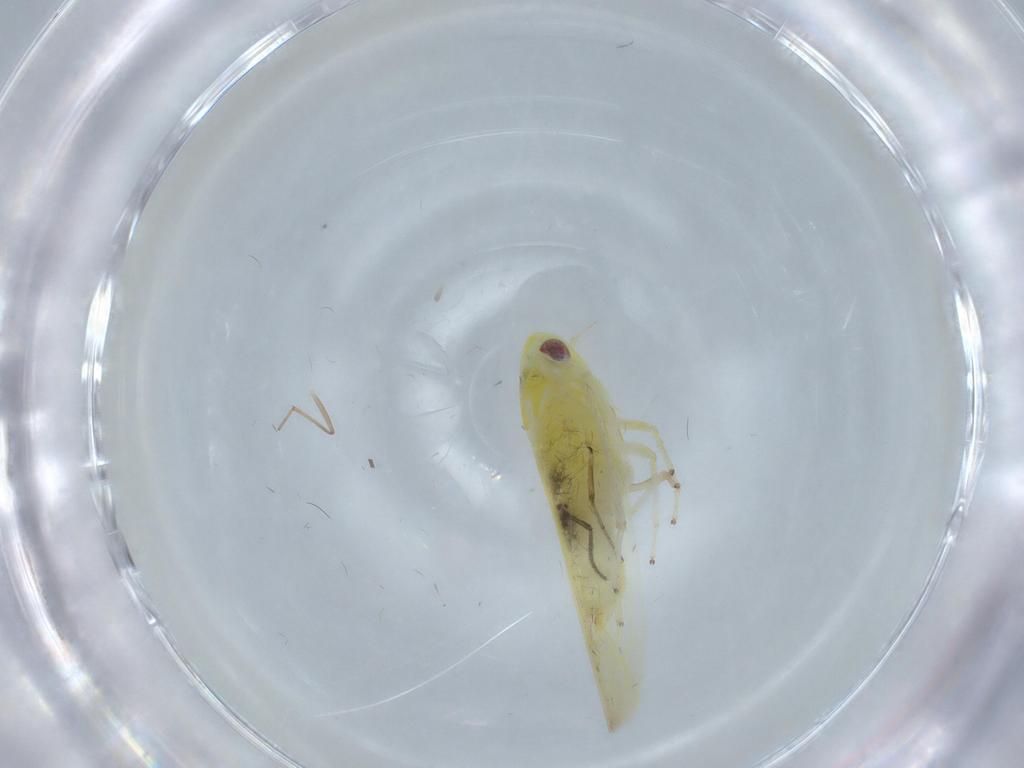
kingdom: Animalia
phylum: Arthropoda
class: Insecta
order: Hemiptera
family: Cicadellidae
